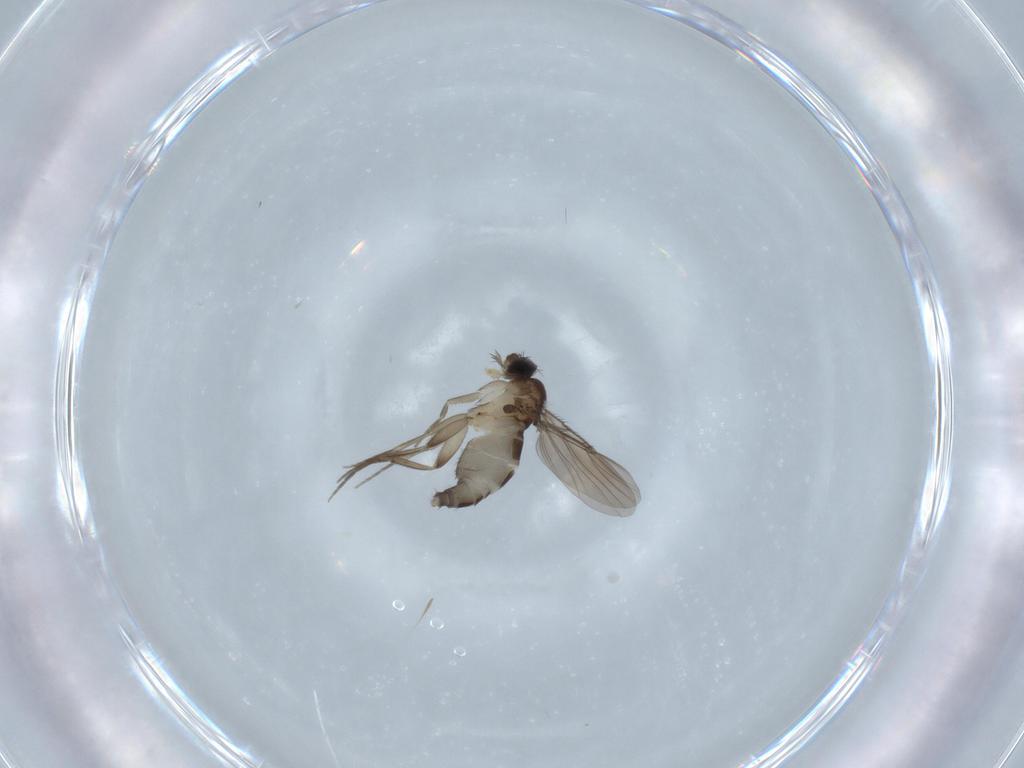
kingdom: Animalia
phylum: Arthropoda
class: Insecta
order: Diptera
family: Phoridae
